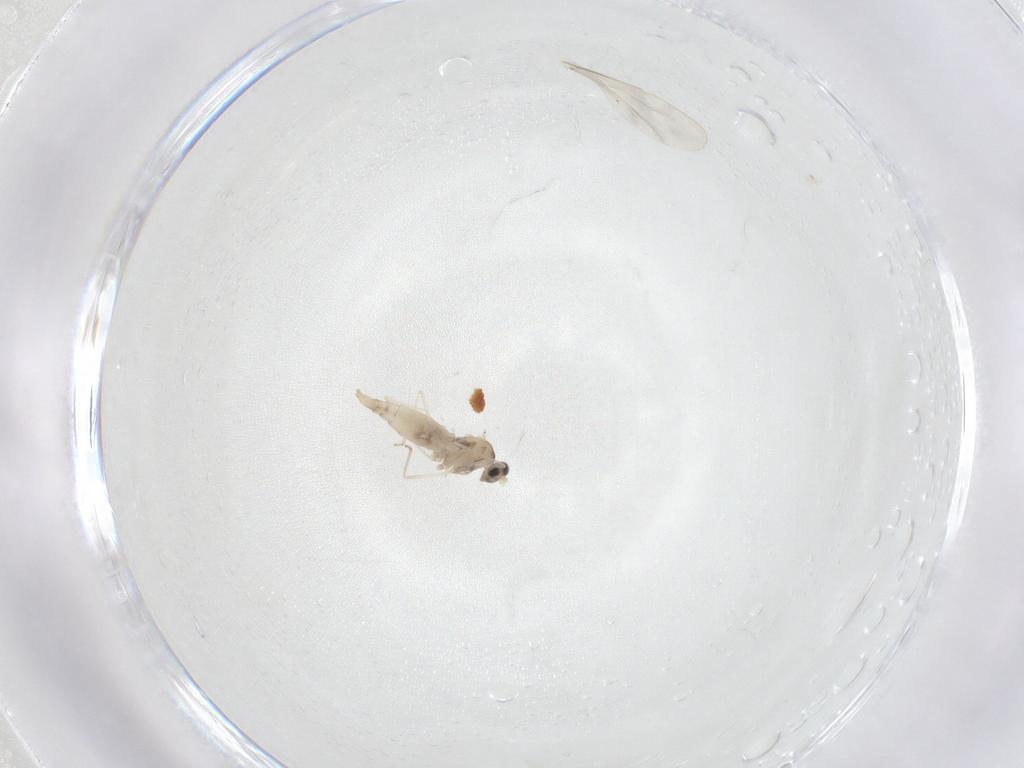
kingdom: Animalia
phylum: Arthropoda
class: Insecta
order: Diptera
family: Cecidomyiidae
